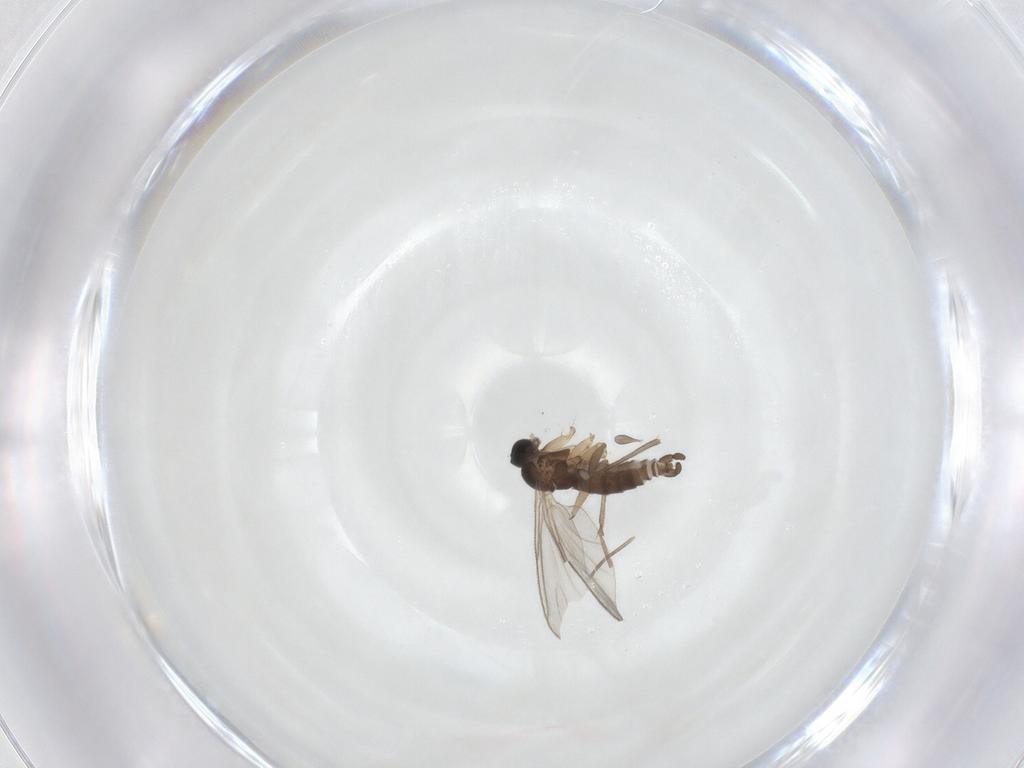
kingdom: Animalia
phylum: Arthropoda
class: Insecta
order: Diptera
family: Sciaridae
